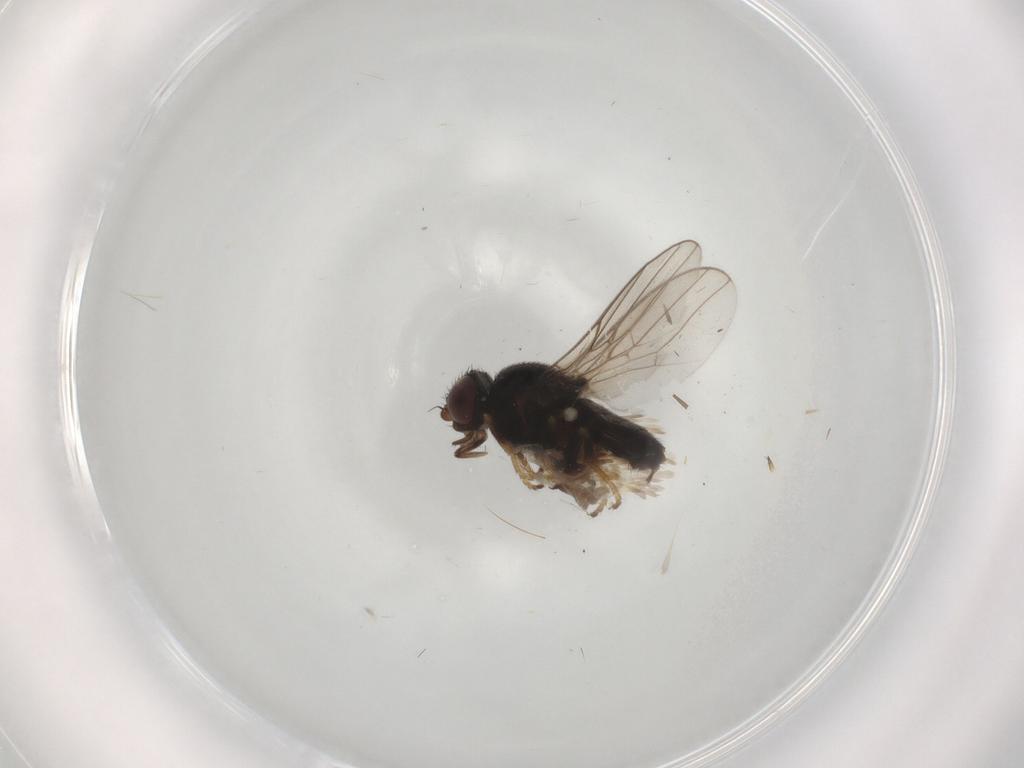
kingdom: Animalia
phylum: Arthropoda
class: Insecta
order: Diptera
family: Chloropidae
